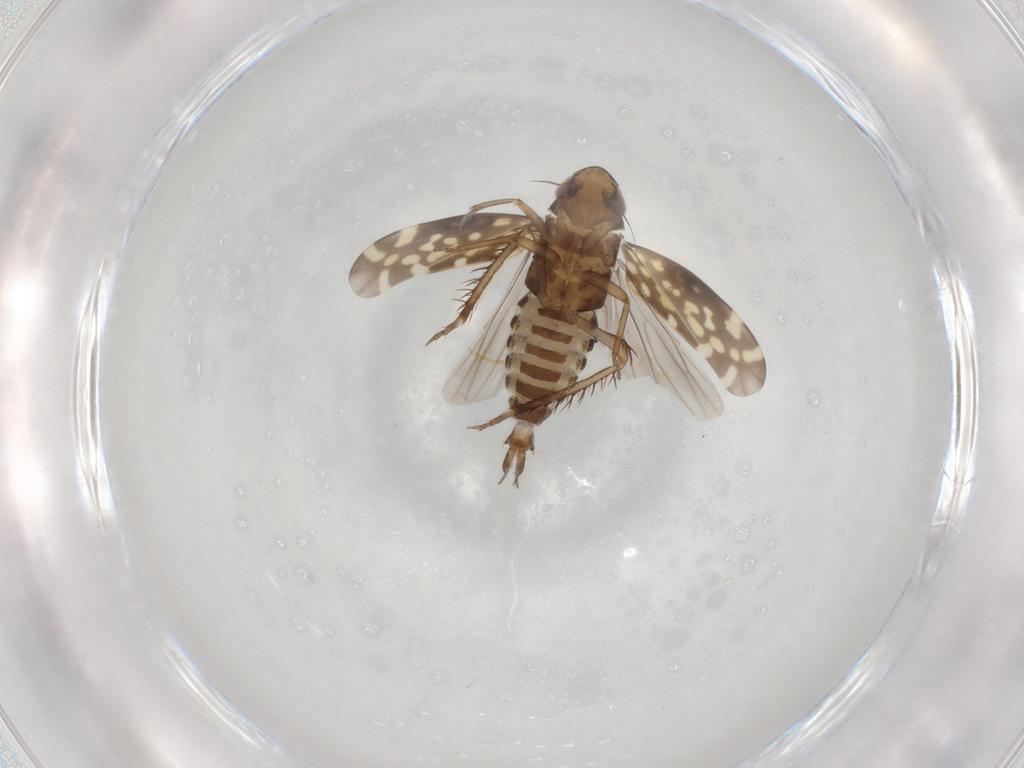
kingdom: Animalia
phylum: Arthropoda
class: Insecta
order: Hemiptera
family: Cicadellidae
